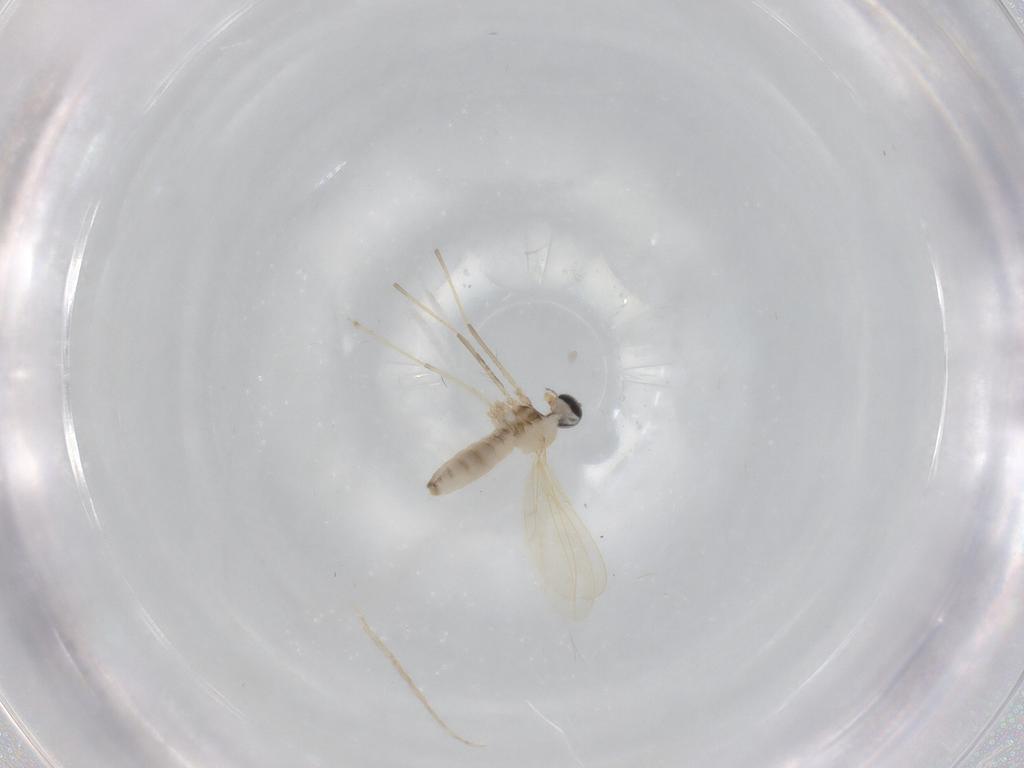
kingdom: Animalia
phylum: Arthropoda
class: Insecta
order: Diptera
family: Cecidomyiidae
